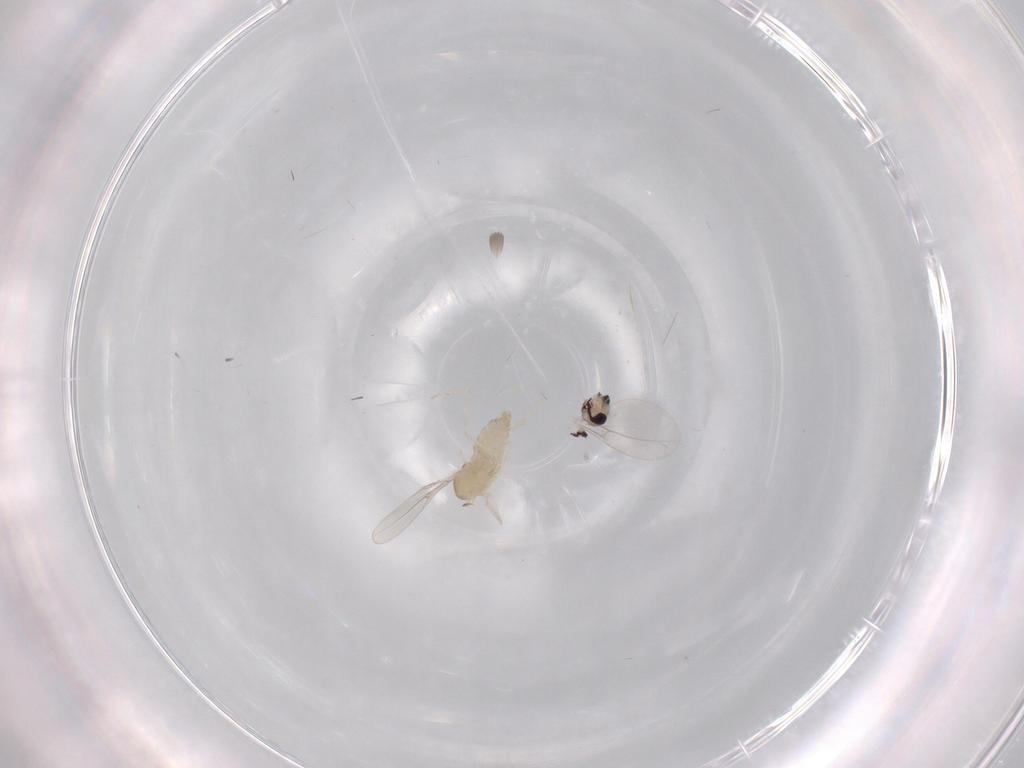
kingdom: Animalia
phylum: Arthropoda
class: Insecta
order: Diptera
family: Cecidomyiidae
